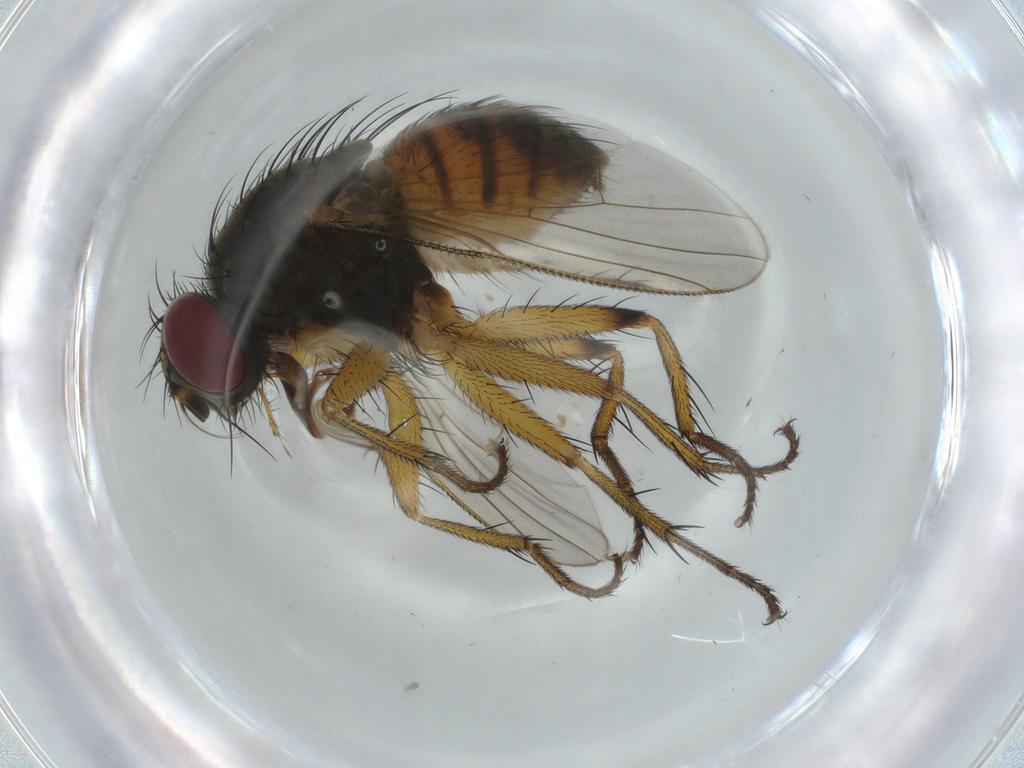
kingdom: Animalia
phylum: Arthropoda
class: Insecta
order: Diptera
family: Muscidae
